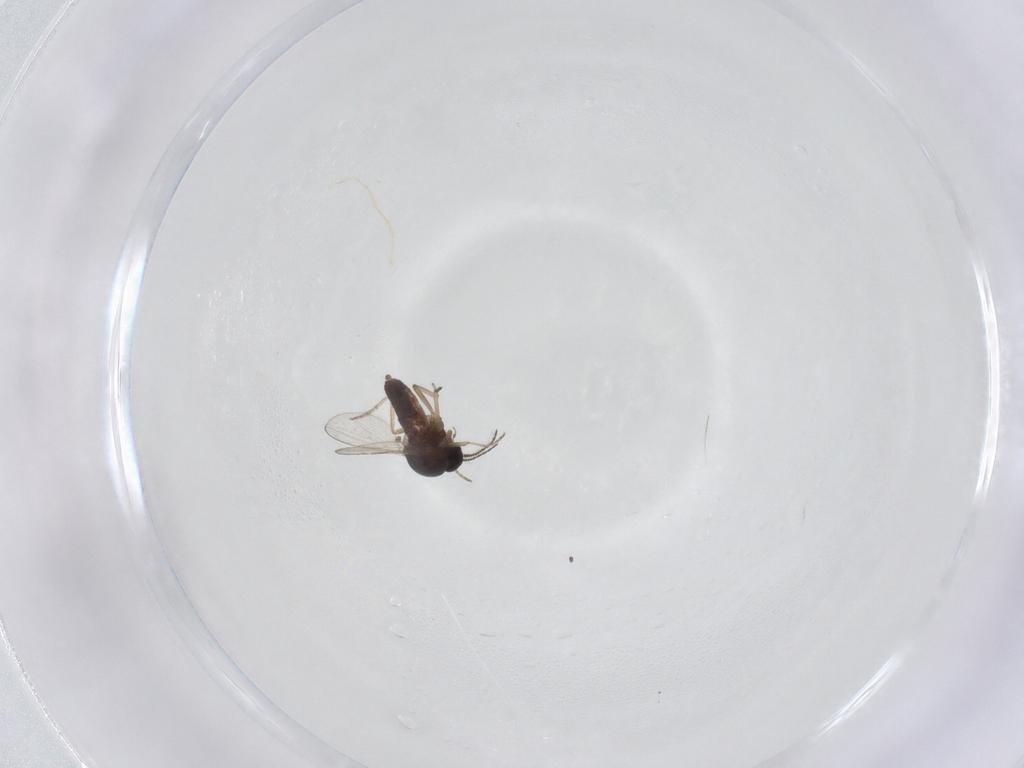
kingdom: Animalia
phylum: Arthropoda
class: Insecta
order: Diptera
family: Ceratopogonidae
